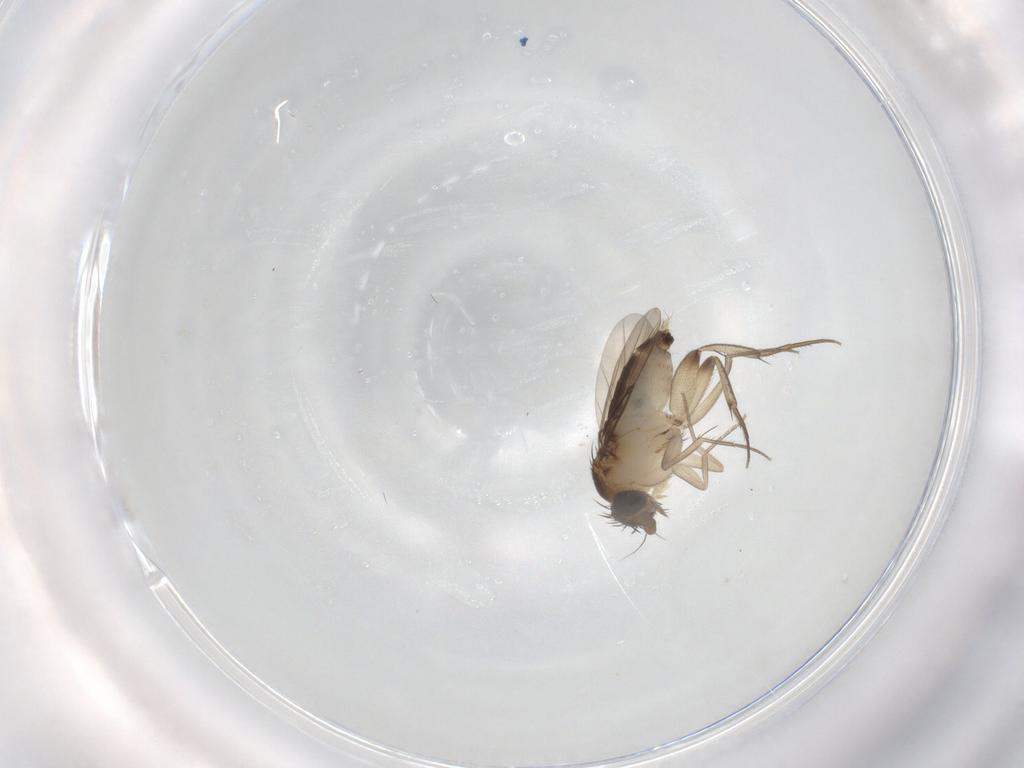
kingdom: Animalia
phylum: Arthropoda
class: Insecta
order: Diptera
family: Phoridae
